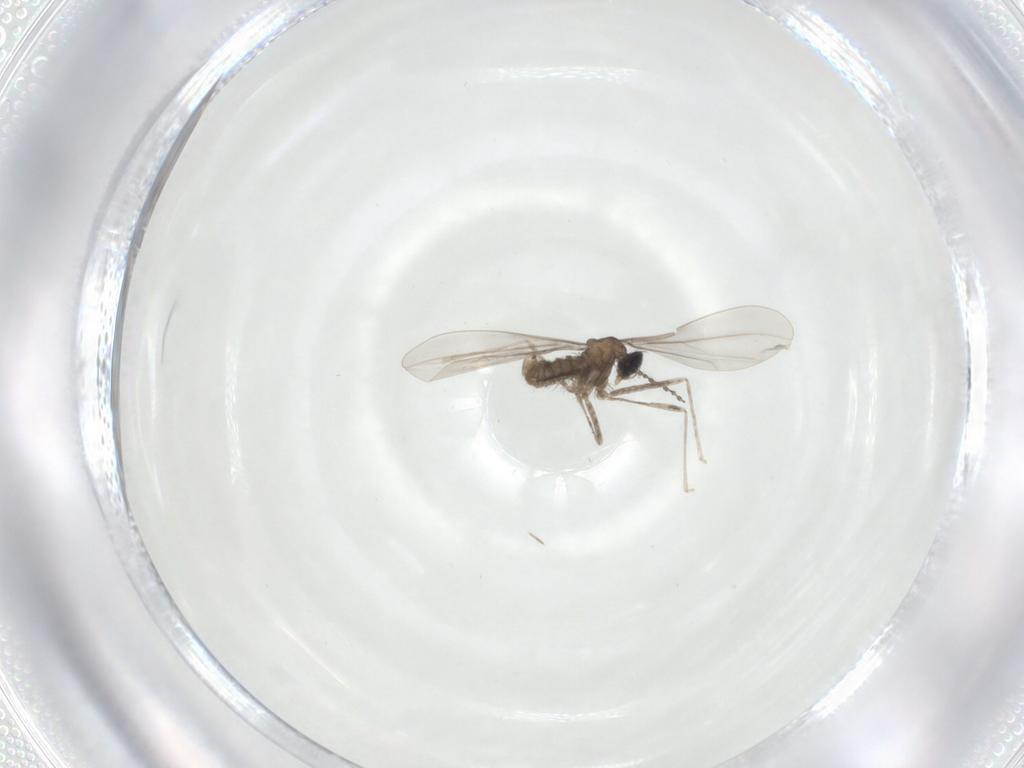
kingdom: Animalia
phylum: Arthropoda
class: Insecta
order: Diptera
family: Cecidomyiidae
